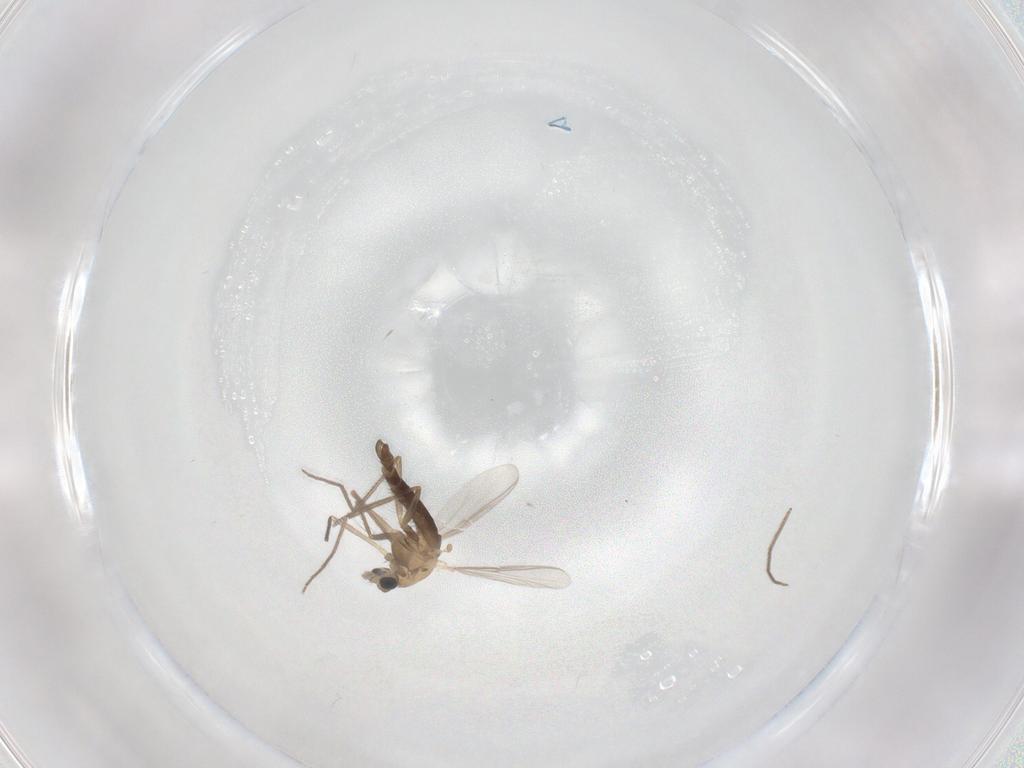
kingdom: Animalia
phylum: Arthropoda
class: Insecta
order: Diptera
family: Chironomidae
